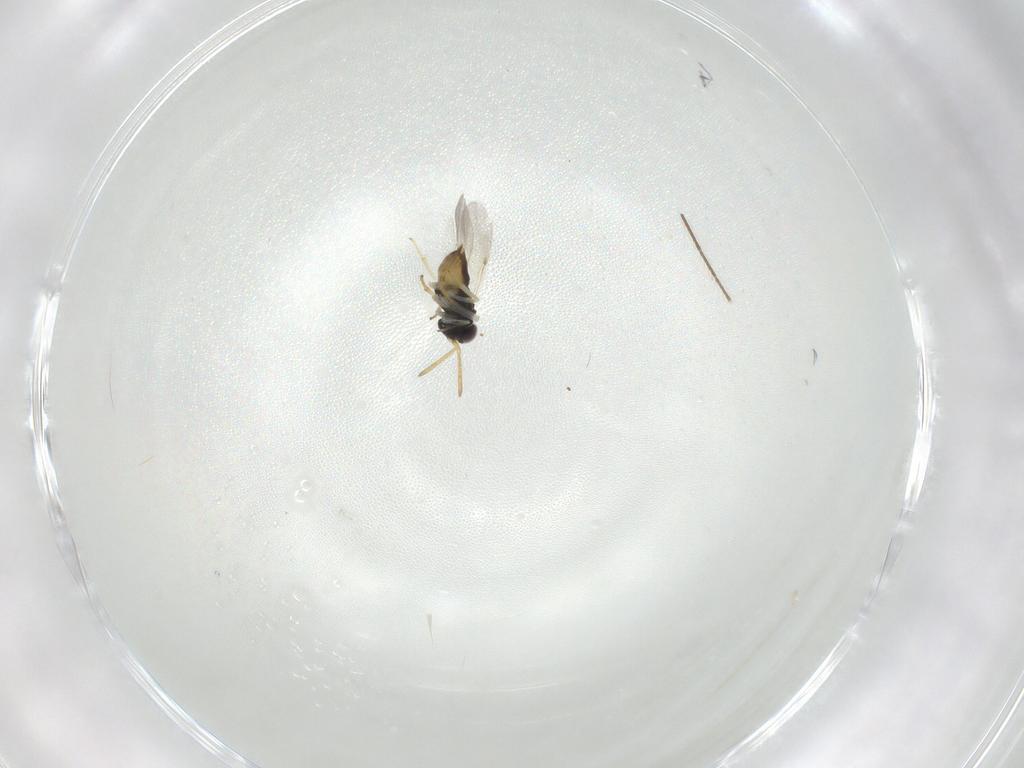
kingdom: Animalia
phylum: Arthropoda
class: Insecta
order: Hymenoptera
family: Encyrtidae
